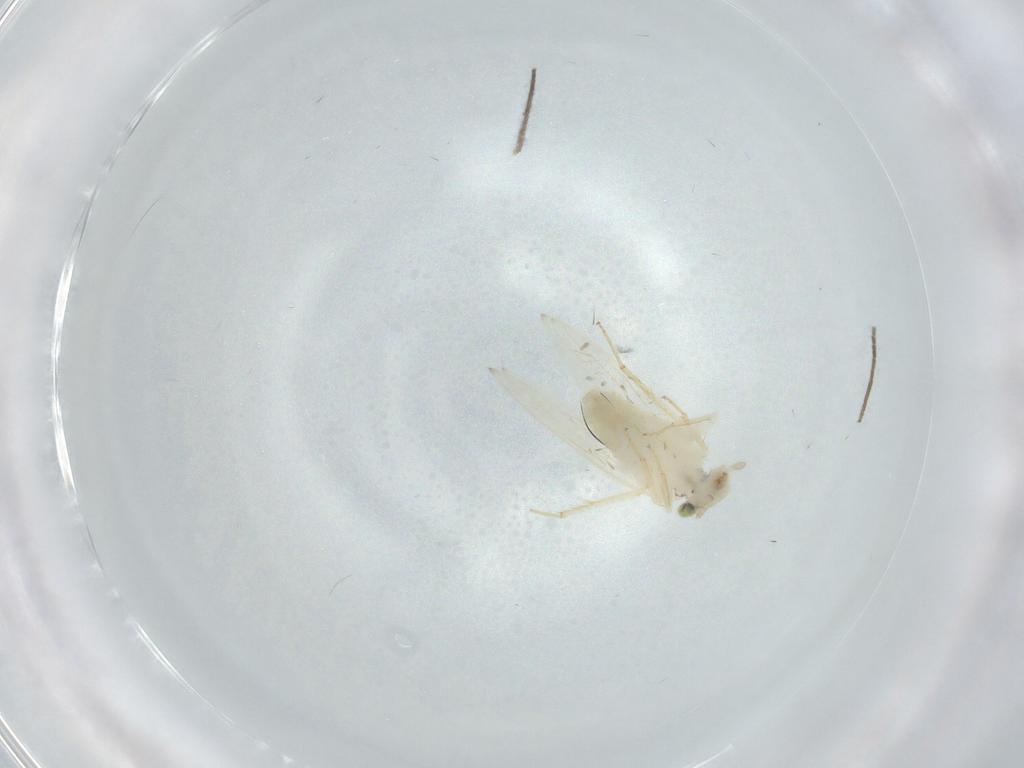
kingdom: Animalia
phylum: Arthropoda
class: Insecta
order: Psocodea
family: Lepidopsocidae
